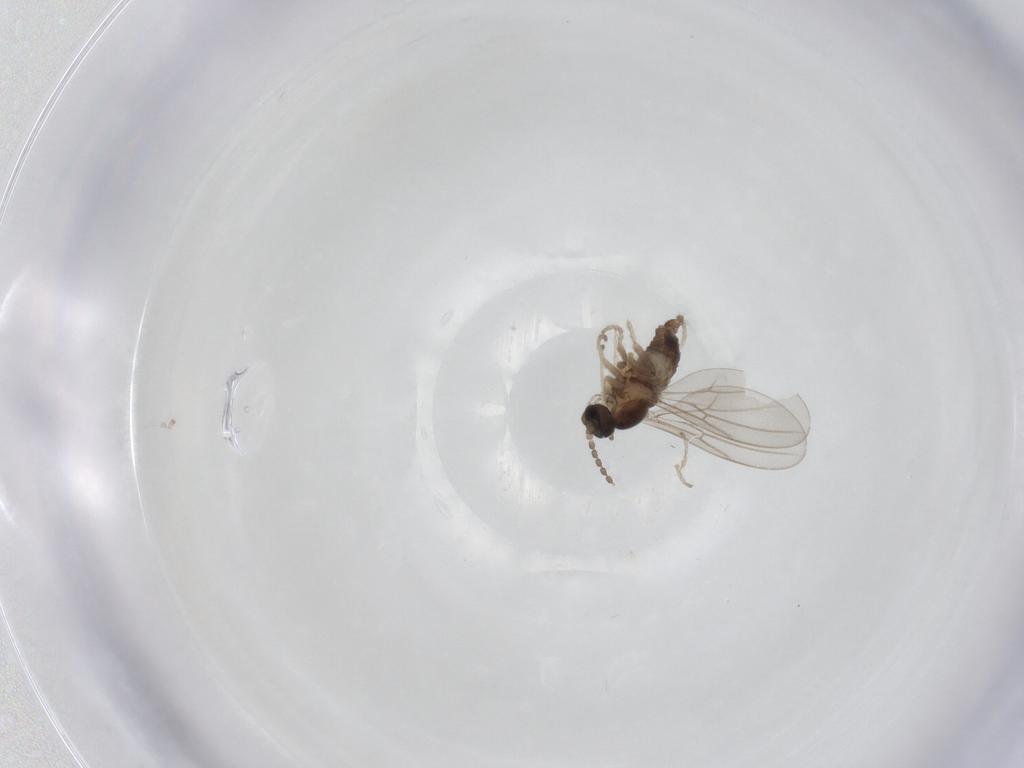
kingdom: Animalia
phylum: Arthropoda
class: Insecta
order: Diptera
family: Cecidomyiidae
